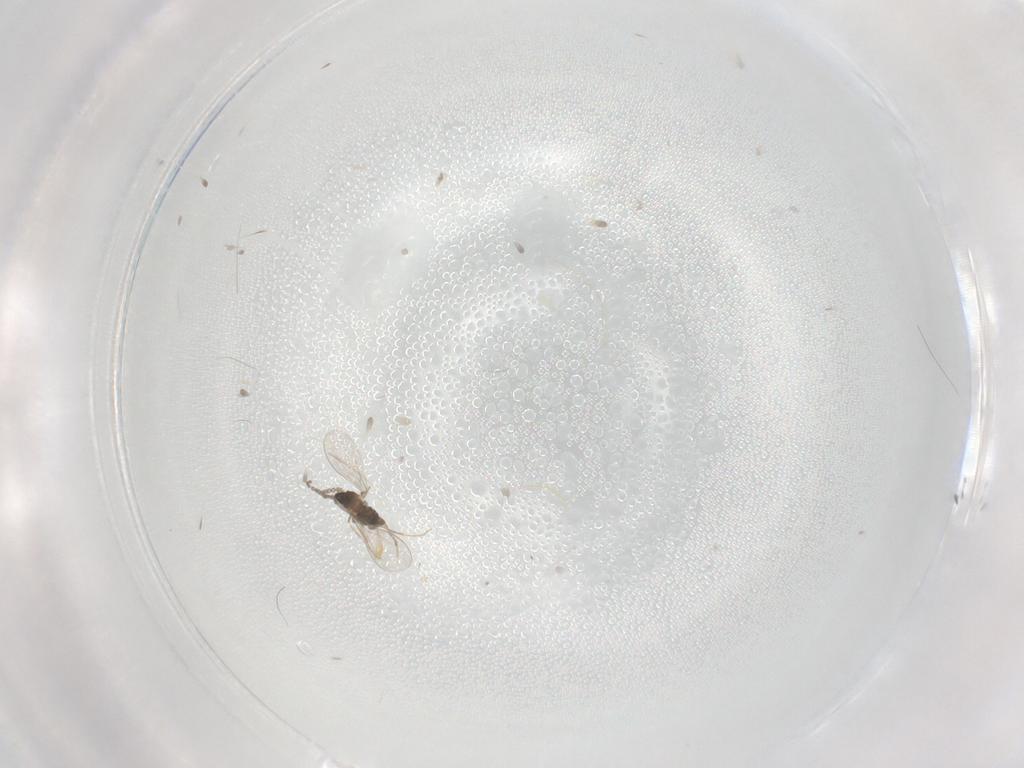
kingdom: Animalia
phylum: Arthropoda
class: Insecta
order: Diptera
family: Cecidomyiidae
